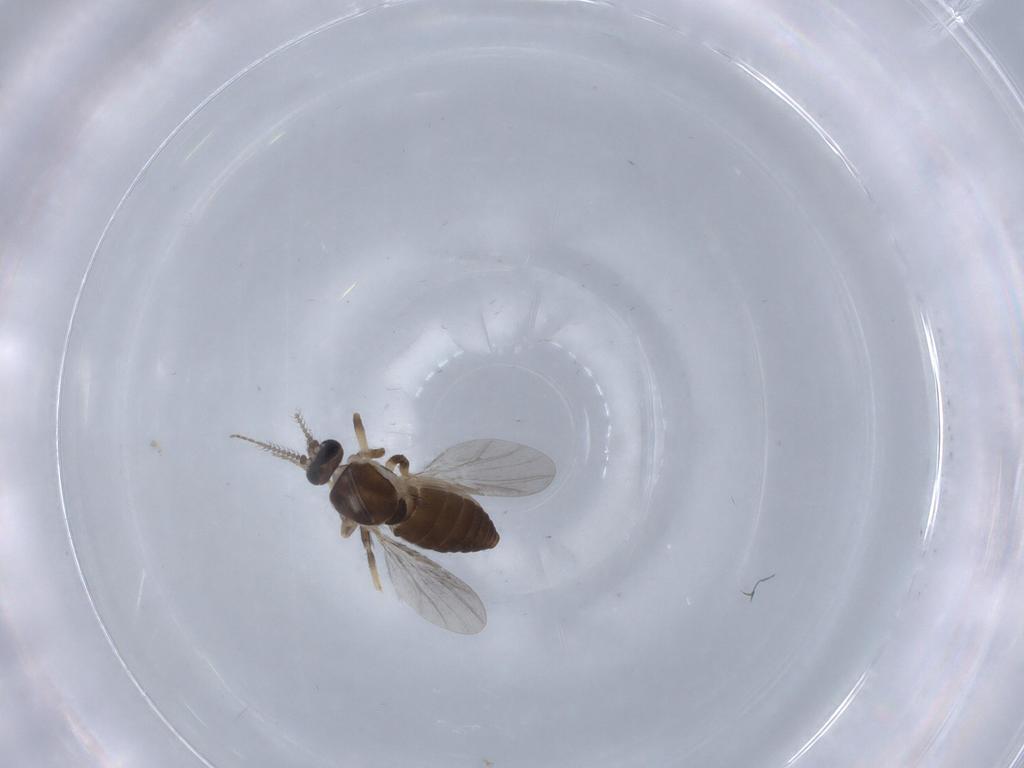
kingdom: Animalia
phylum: Arthropoda
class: Insecta
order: Diptera
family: Ceratopogonidae
